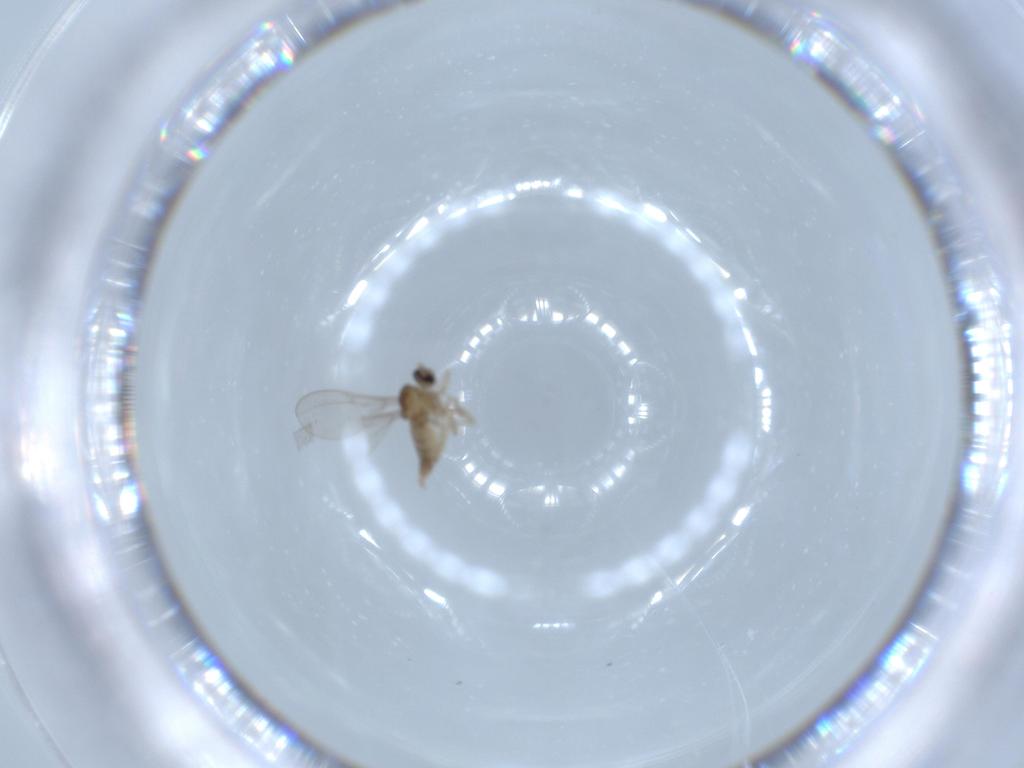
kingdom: Animalia
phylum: Arthropoda
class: Insecta
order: Diptera
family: Cecidomyiidae
